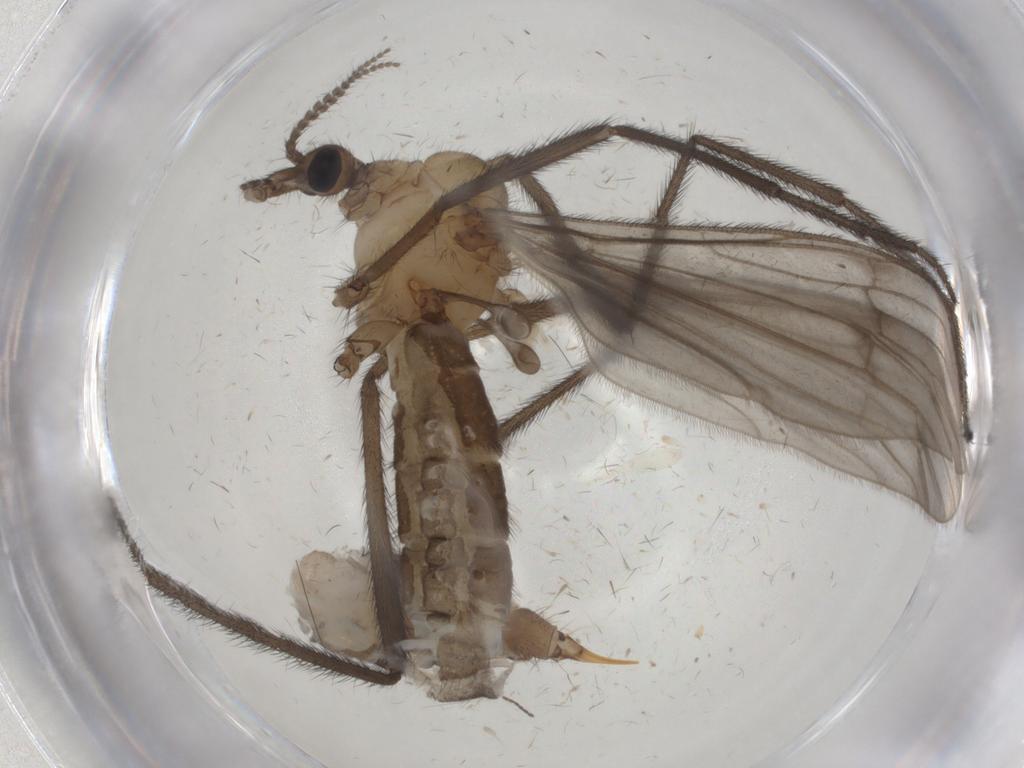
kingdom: Animalia
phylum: Arthropoda
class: Insecta
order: Diptera
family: Limoniidae
